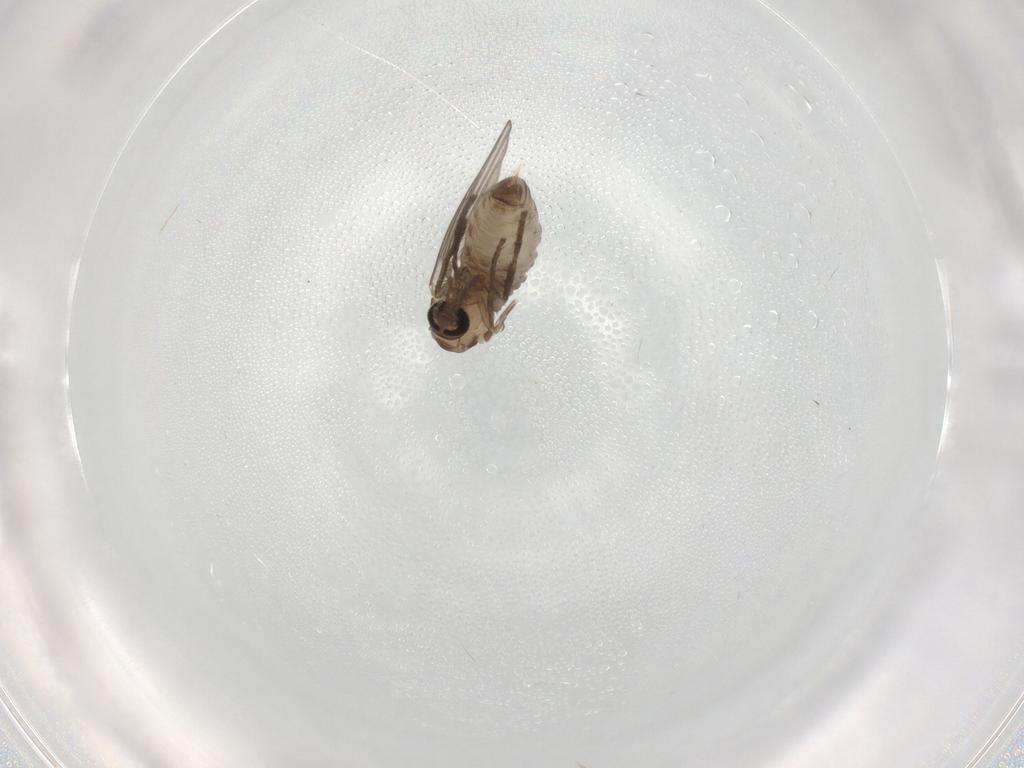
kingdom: Animalia
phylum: Arthropoda
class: Insecta
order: Diptera
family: Psychodidae
